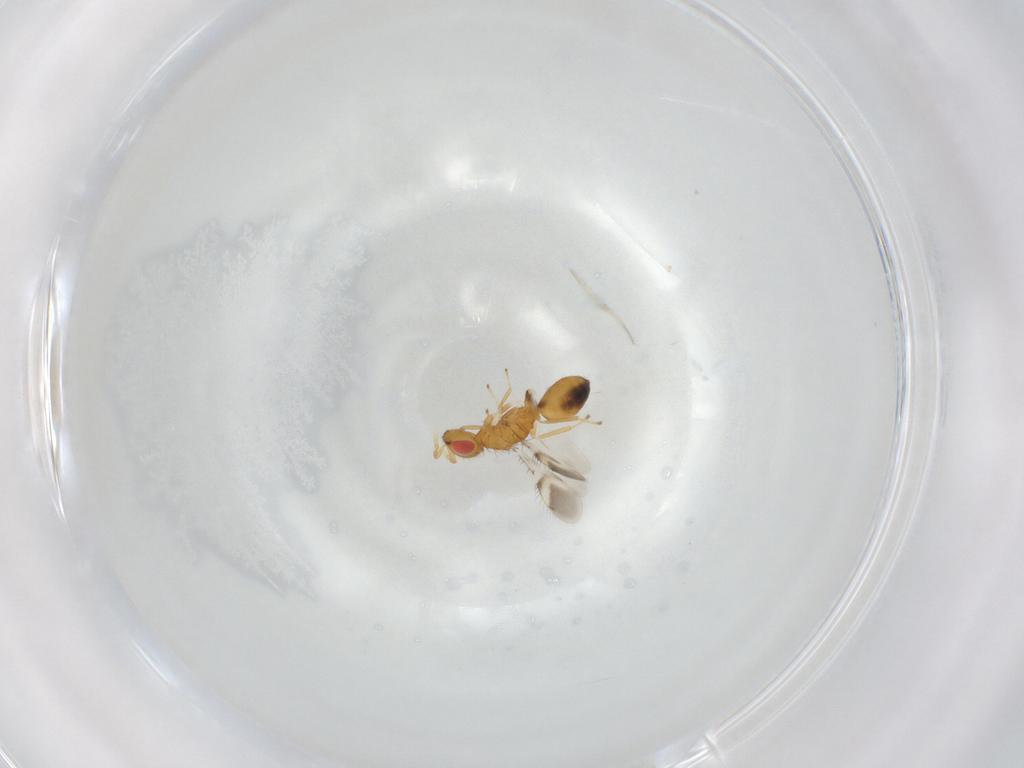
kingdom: Animalia
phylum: Arthropoda
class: Insecta
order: Hymenoptera
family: Eulophidae
